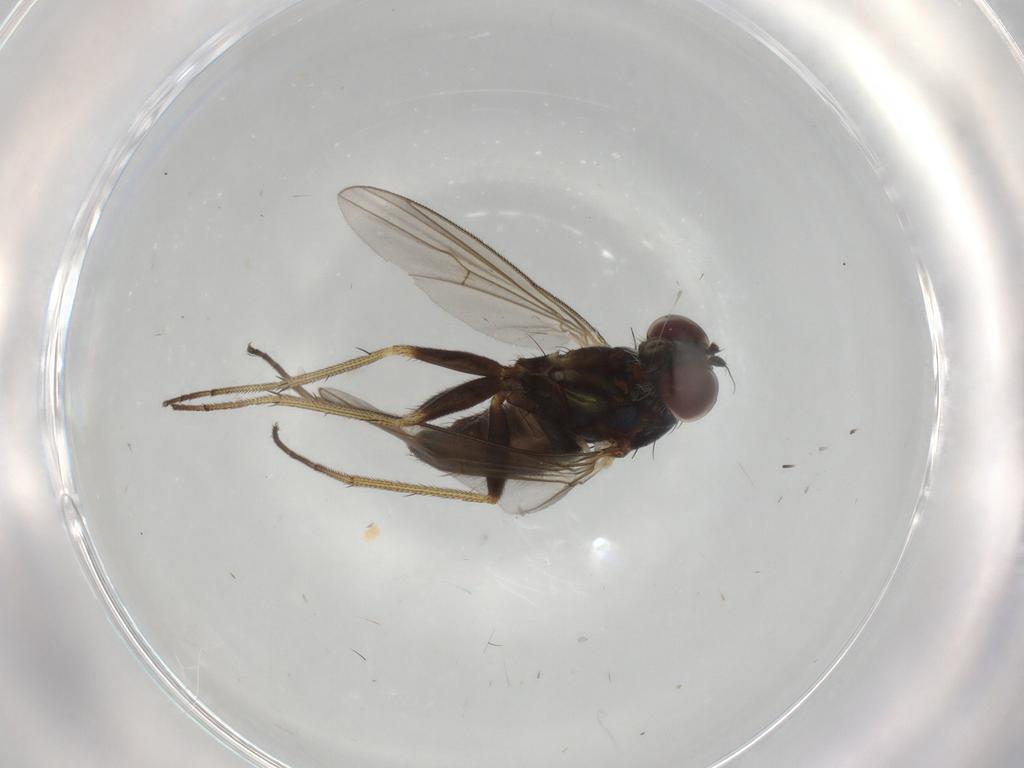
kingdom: Animalia
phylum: Arthropoda
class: Insecta
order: Diptera
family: Dolichopodidae
